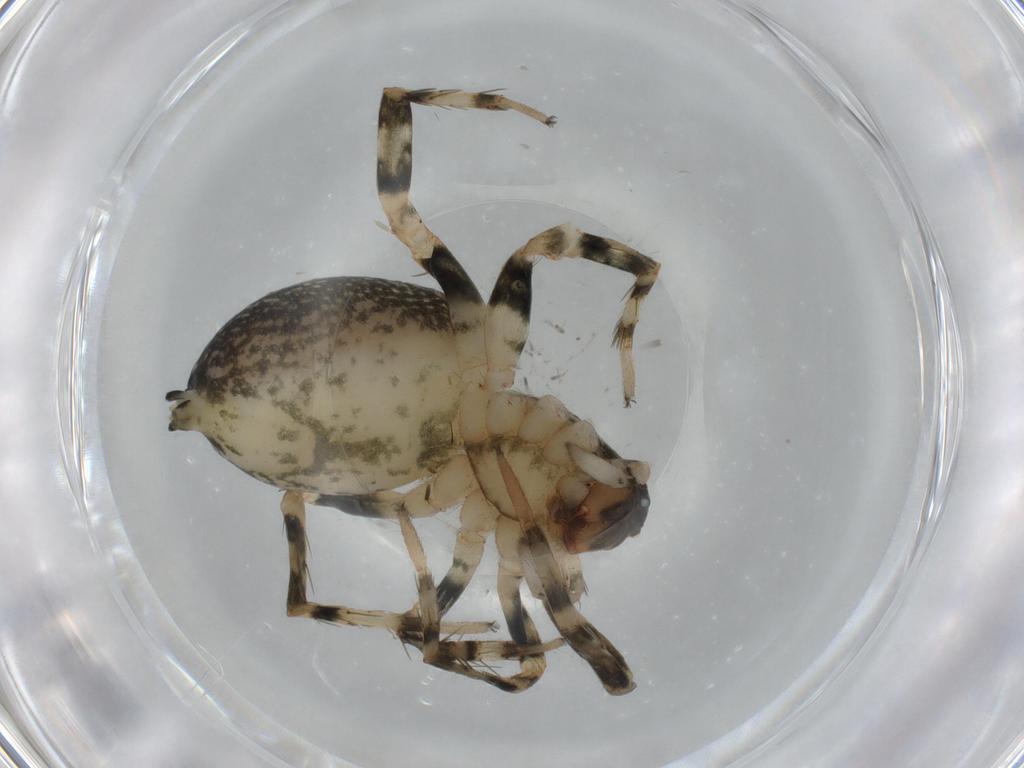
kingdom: Animalia
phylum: Arthropoda
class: Arachnida
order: Araneae
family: Anyphaenidae
